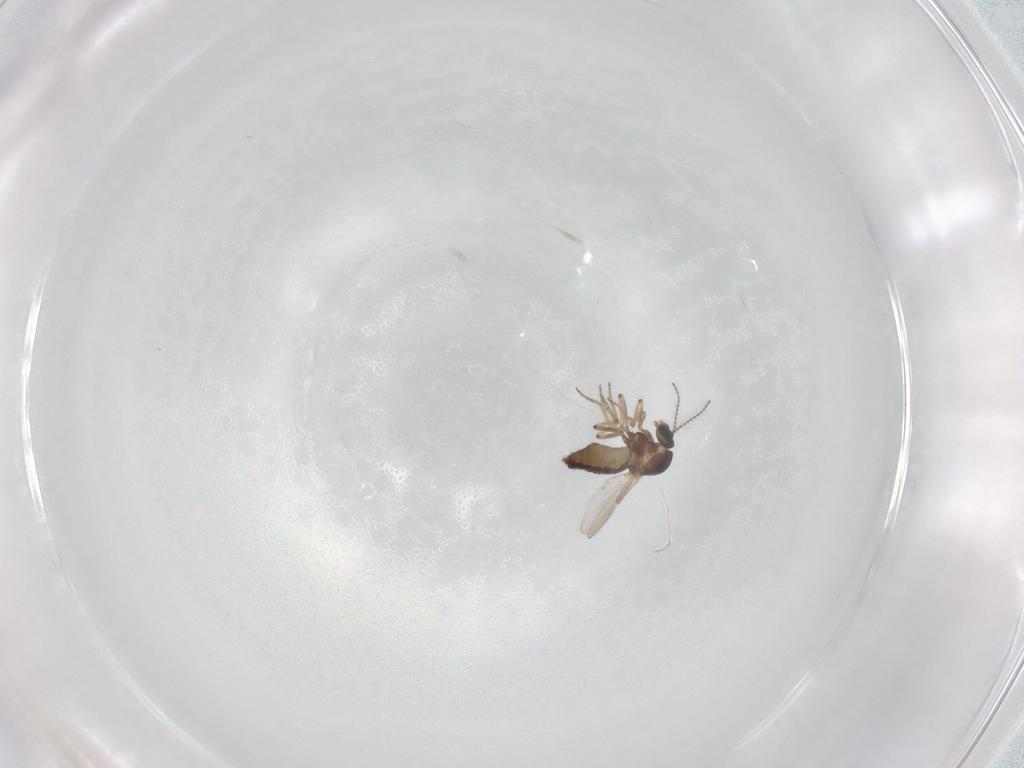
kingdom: Animalia
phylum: Arthropoda
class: Insecta
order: Diptera
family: Ceratopogonidae
